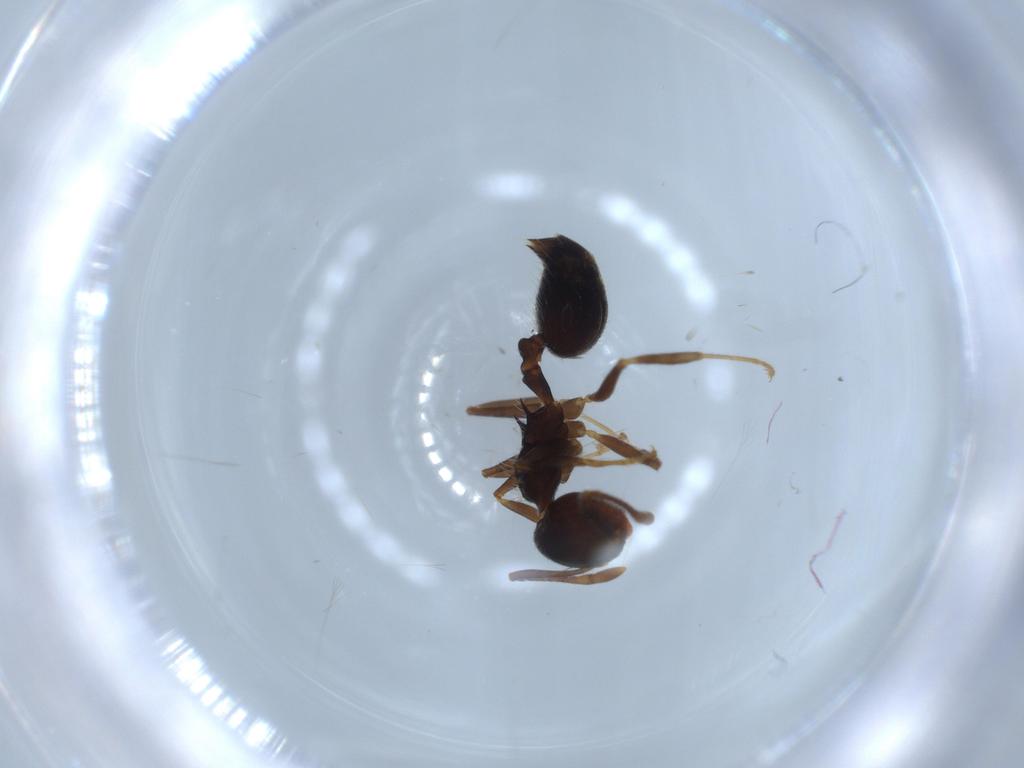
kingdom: Animalia
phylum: Arthropoda
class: Insecta
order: Hymenoptera
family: Formicidae
